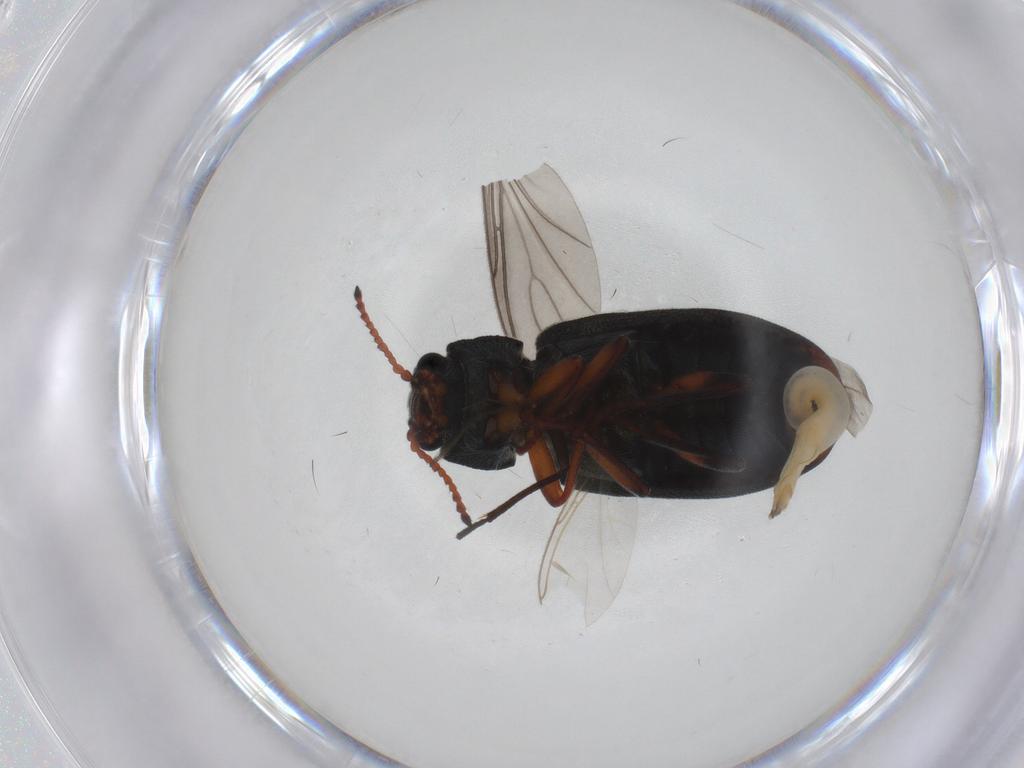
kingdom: Animalia
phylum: Arthropoda
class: Insecta
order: Coleoptera
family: Melyridae
